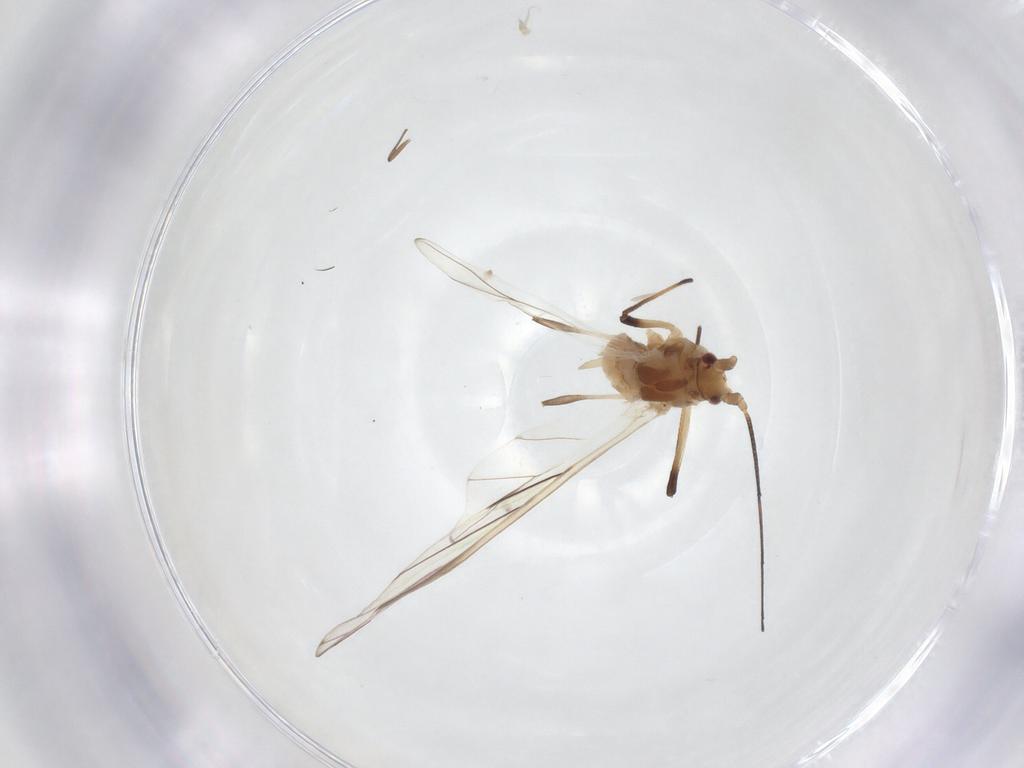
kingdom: Animalia
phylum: Arthropoda
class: Insecta
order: Hemiptera
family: Aphididae
